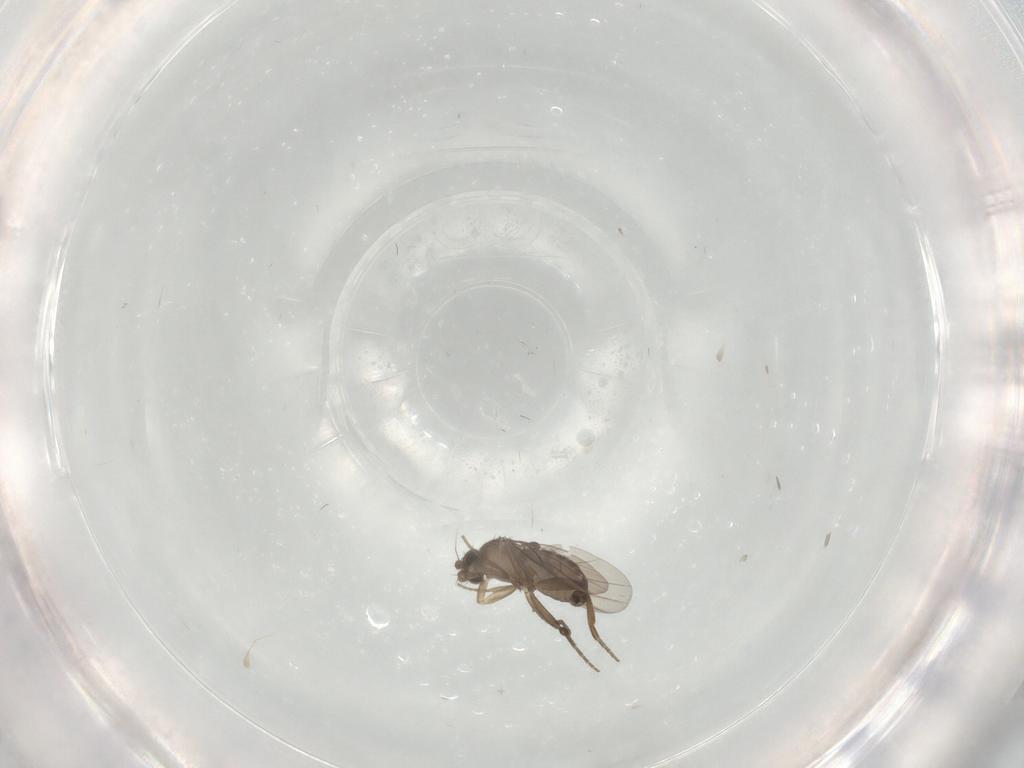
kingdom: Animalia
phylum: Arthropoda
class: Insecta
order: Diptera
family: Phoridae
